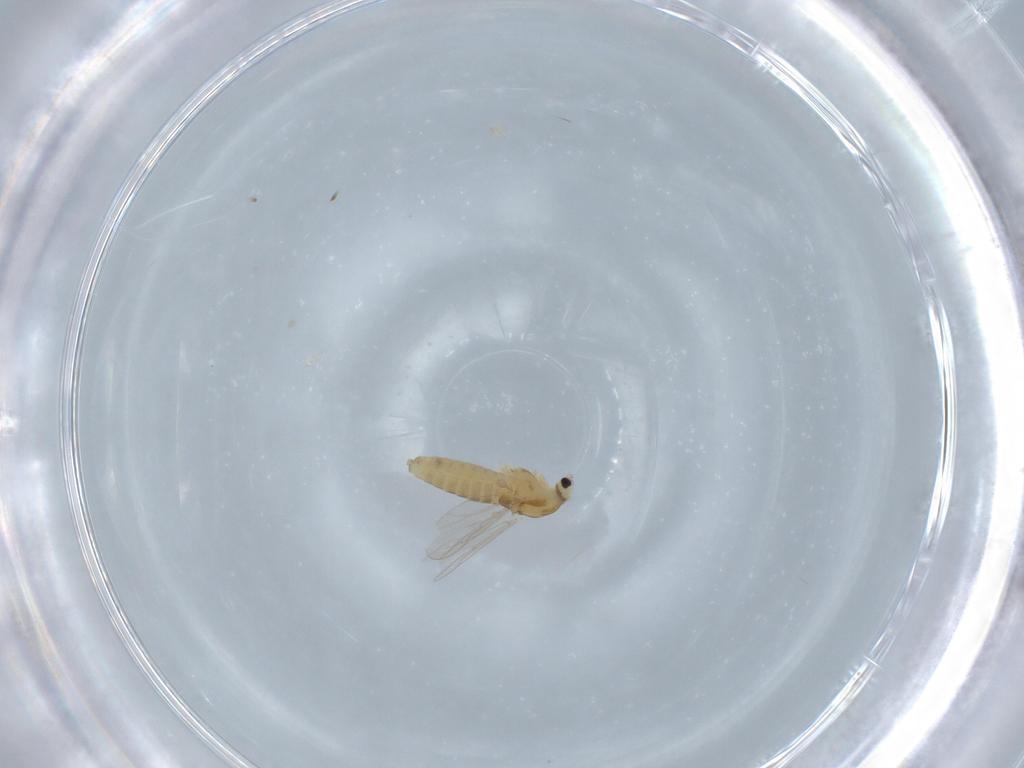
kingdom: Animalia
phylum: Arthropoda
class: Insecta
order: Diptera
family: Chironomidae
